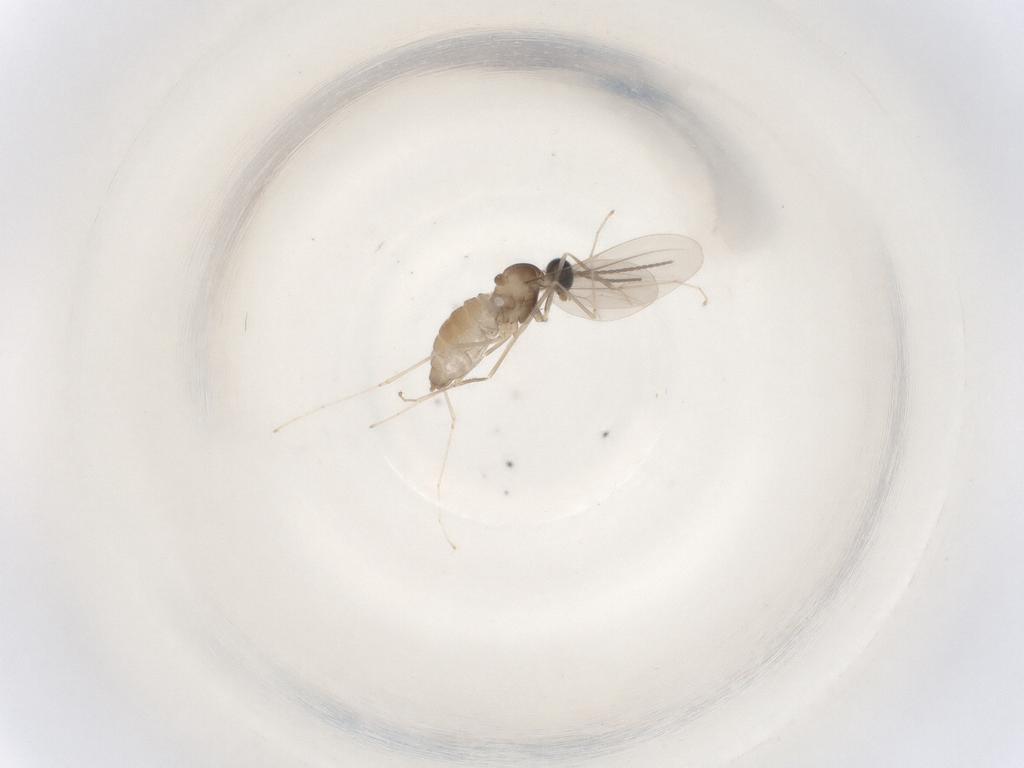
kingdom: Animalia
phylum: Arthropoda
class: Insecta
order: Diptera
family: Cecidomyiidae
